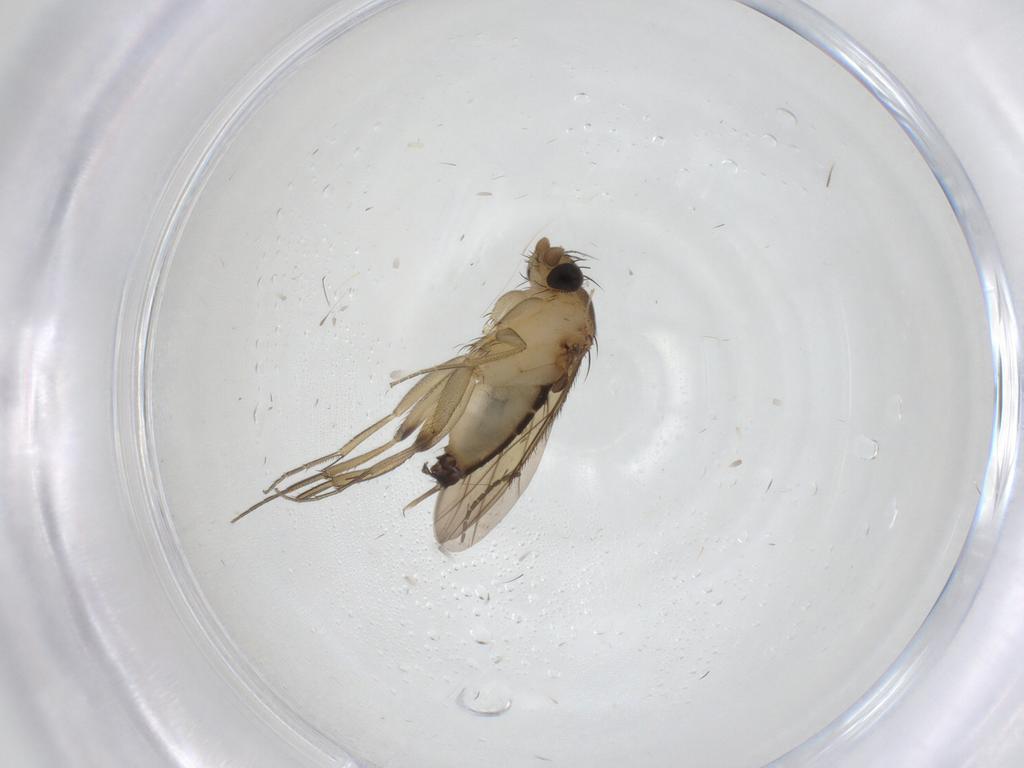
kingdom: Animalia
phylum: Arthropoda
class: Insecta
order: Diptera
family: Phoridae
